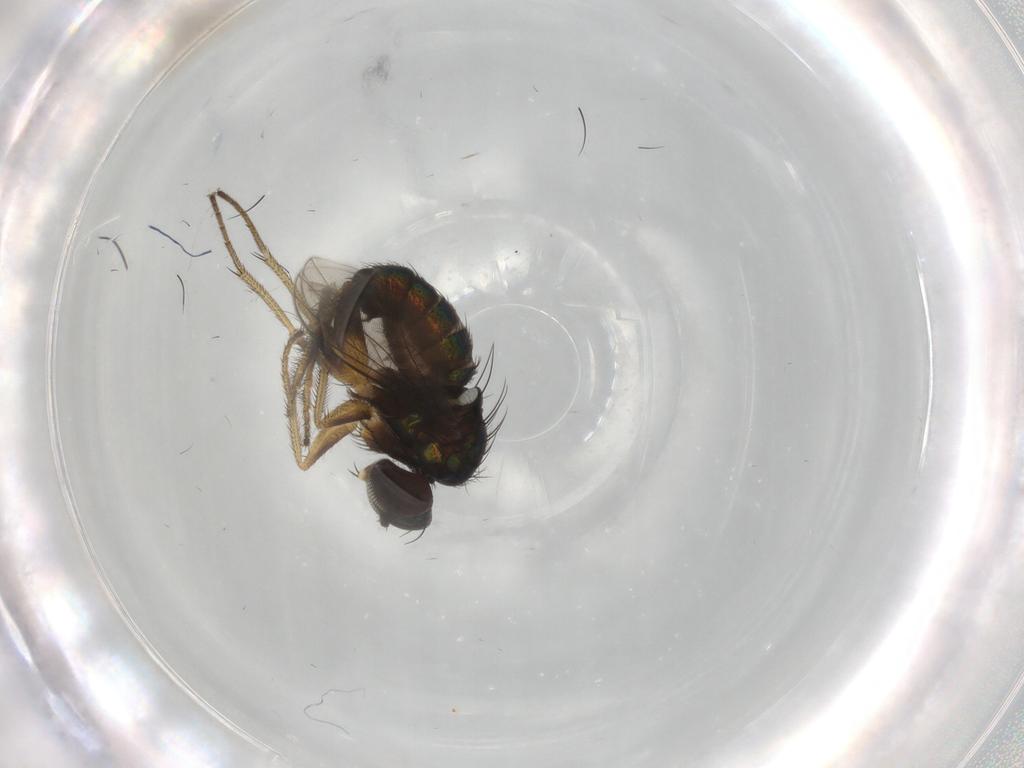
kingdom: Animalia
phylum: Arthropoda
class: Insecta
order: Diptera
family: Dolichopodidae
